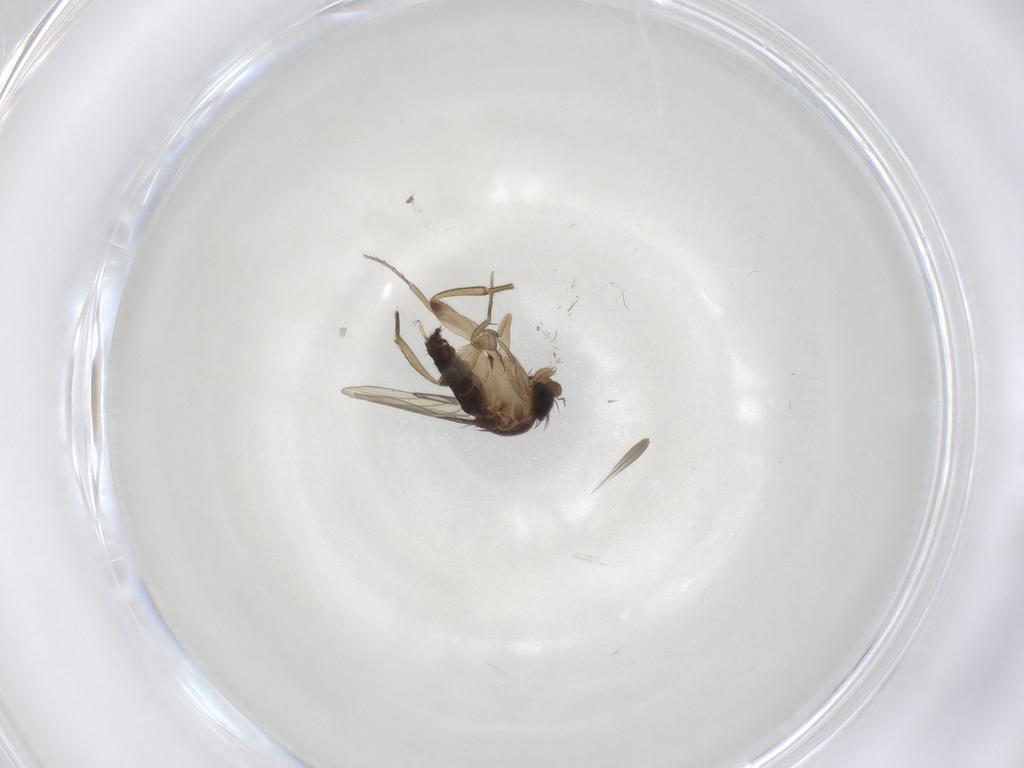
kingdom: Animalia
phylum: Arthropoda
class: Insecta
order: Diptera
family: Phoridae
